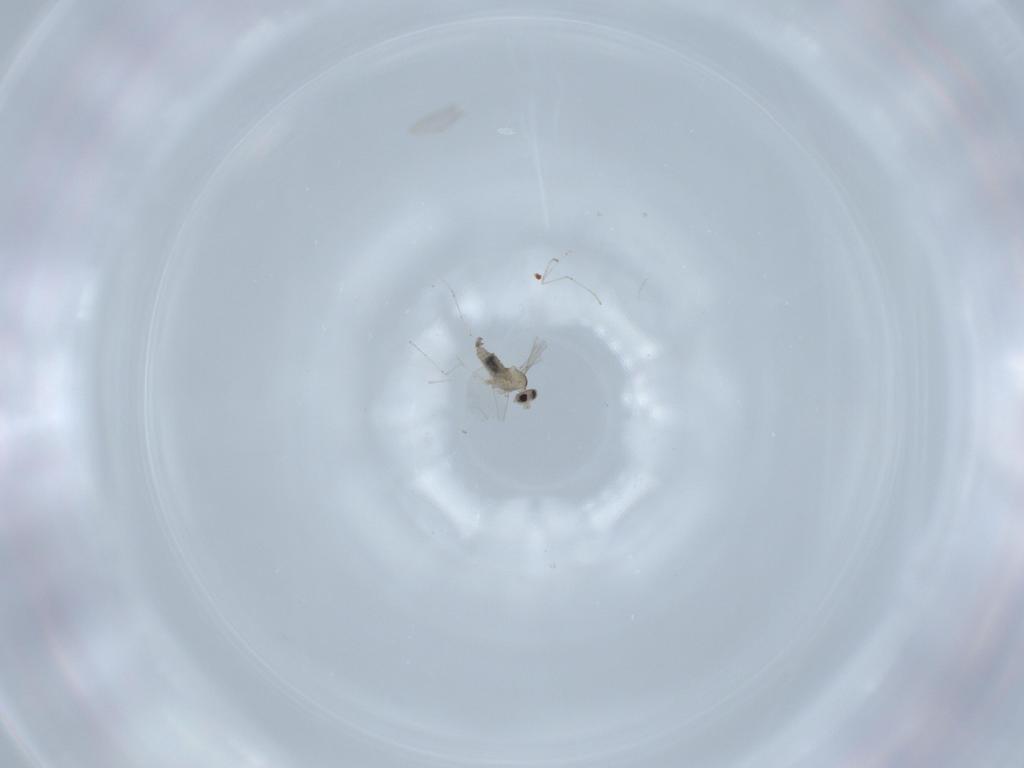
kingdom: Animalia
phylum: Arthropoda
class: Insecta
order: Diptera
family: Cecidomyiidae
